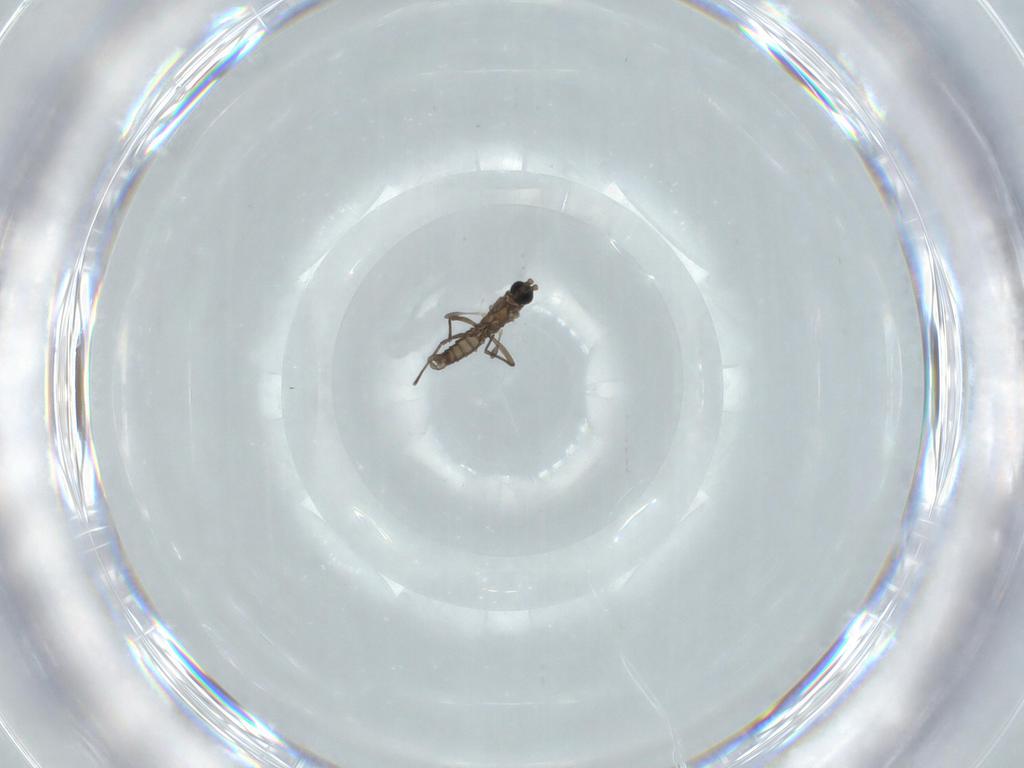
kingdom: Animalia
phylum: Arthropoda
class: Insecta
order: Diptera
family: Sciaridae
